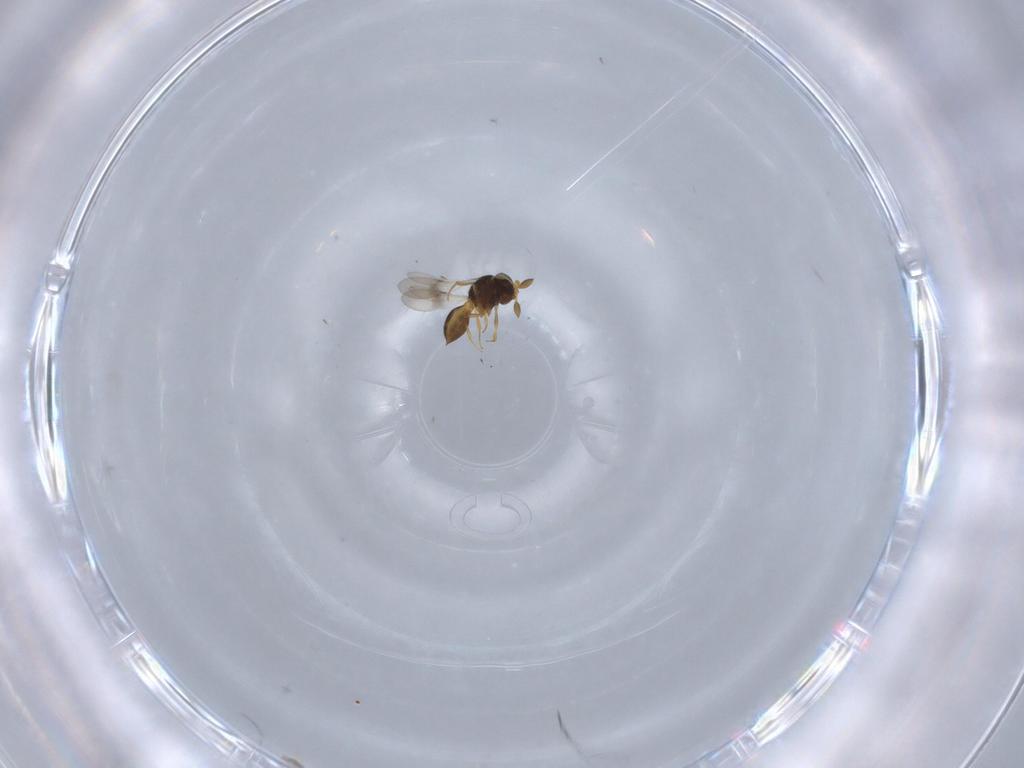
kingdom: Animalia
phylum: Arthropoda
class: Insecta
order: Hymenoptera
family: Scelionidae
